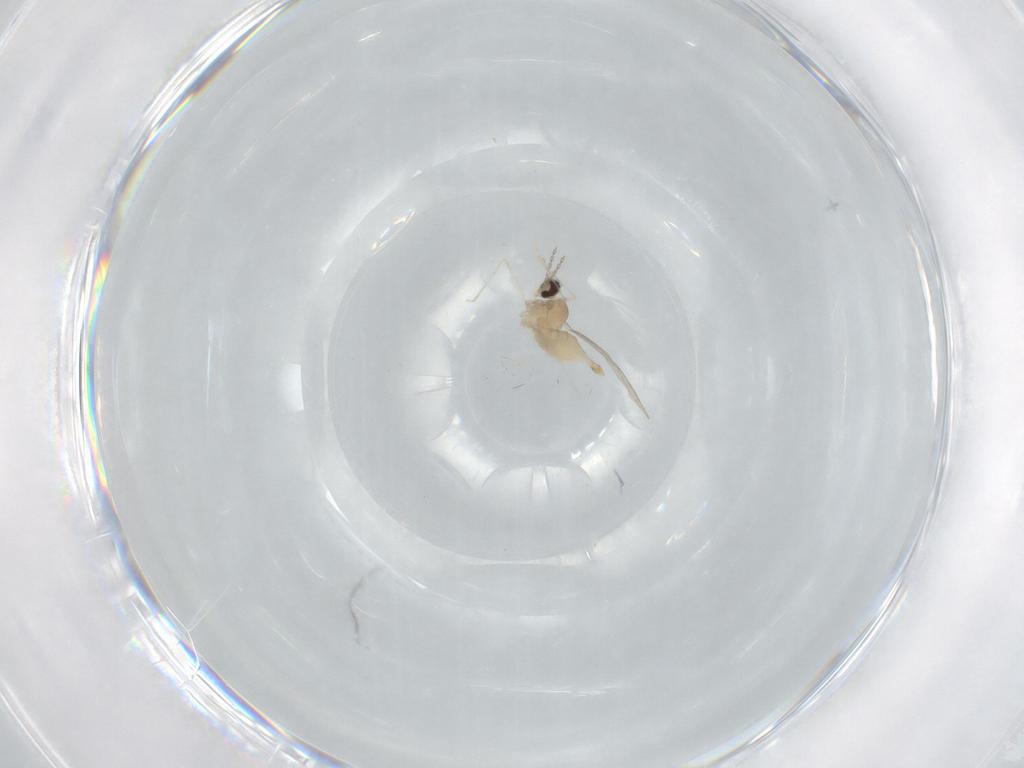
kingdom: Animalia
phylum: Arthropoda
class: Insecta
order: Diptera
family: Cecidomyiidae
